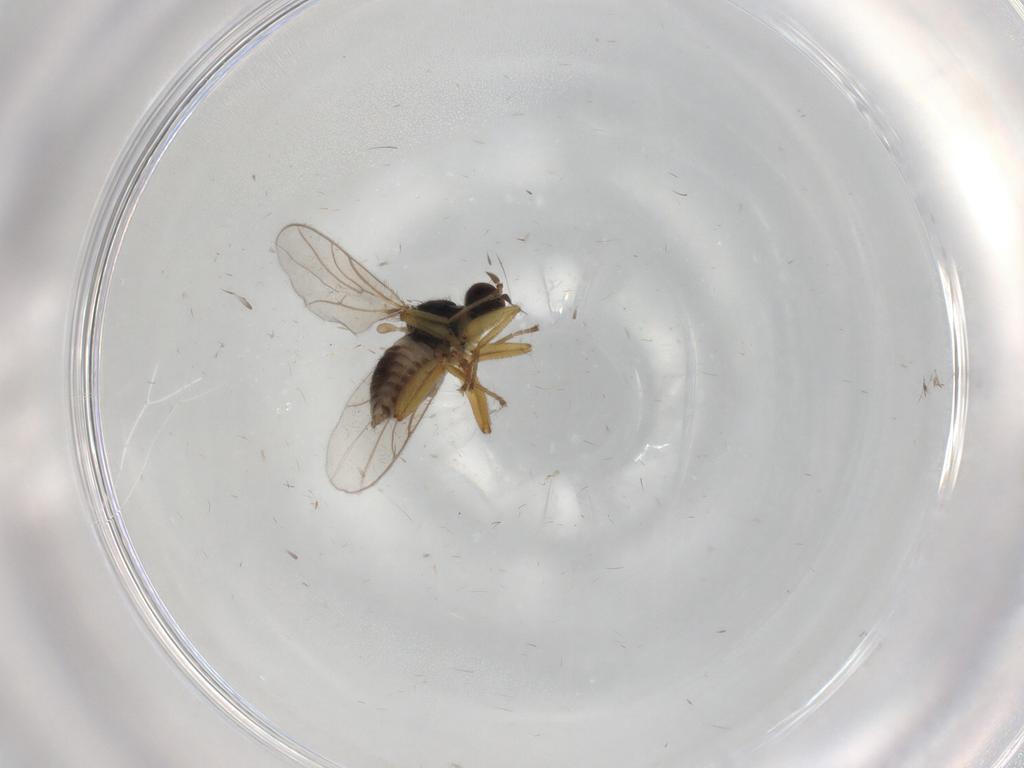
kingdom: Animalia
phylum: Arthropoda
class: Insecta
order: Diptera
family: Hybotidae
